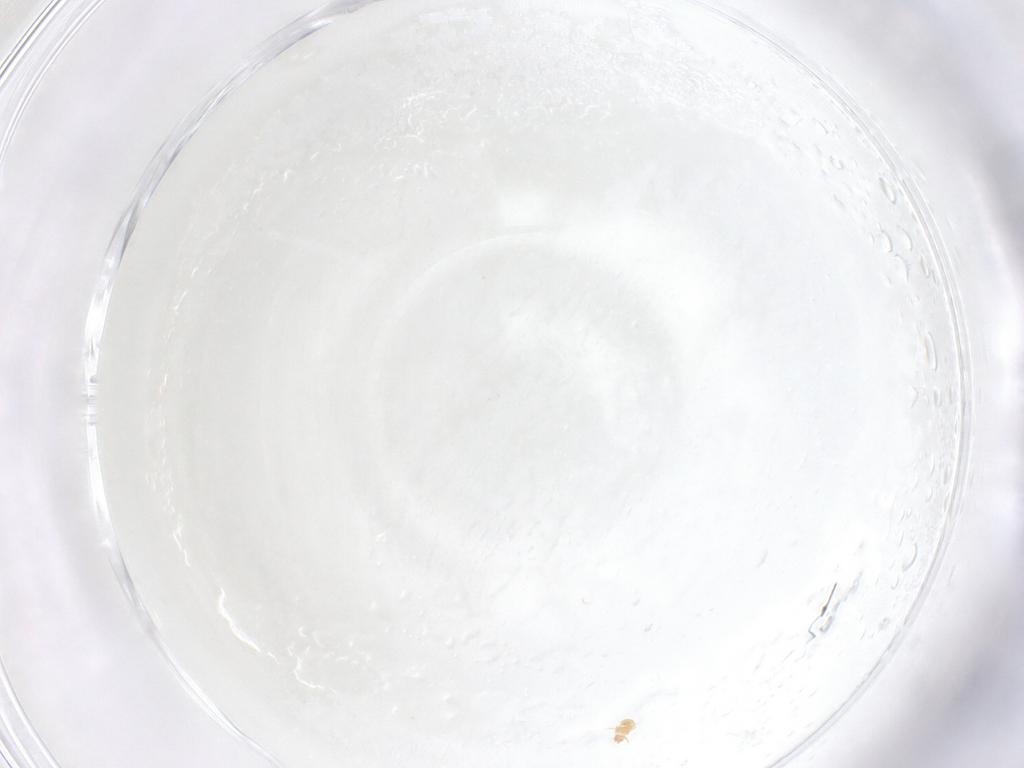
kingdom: Animalia
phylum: Arthropoda
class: Arachnida
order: Trombidiformes
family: Pygmephoridae
